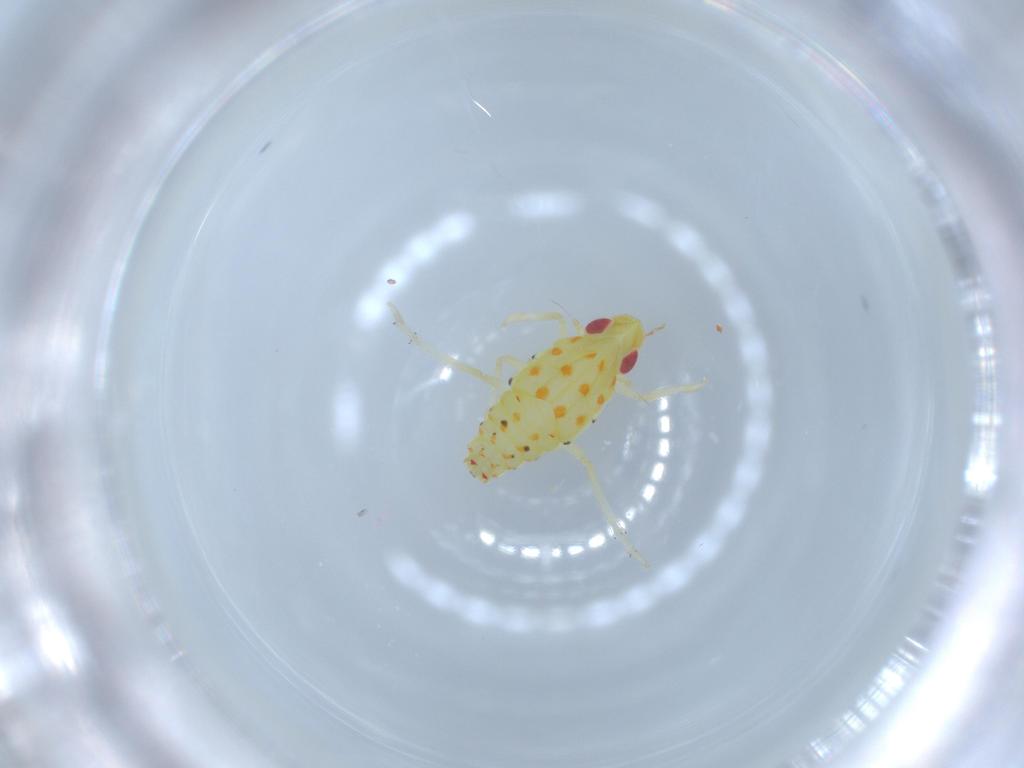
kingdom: Animalia
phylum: Arthropoda
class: Insecta
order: Hemiptera
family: Tropiduchidae
